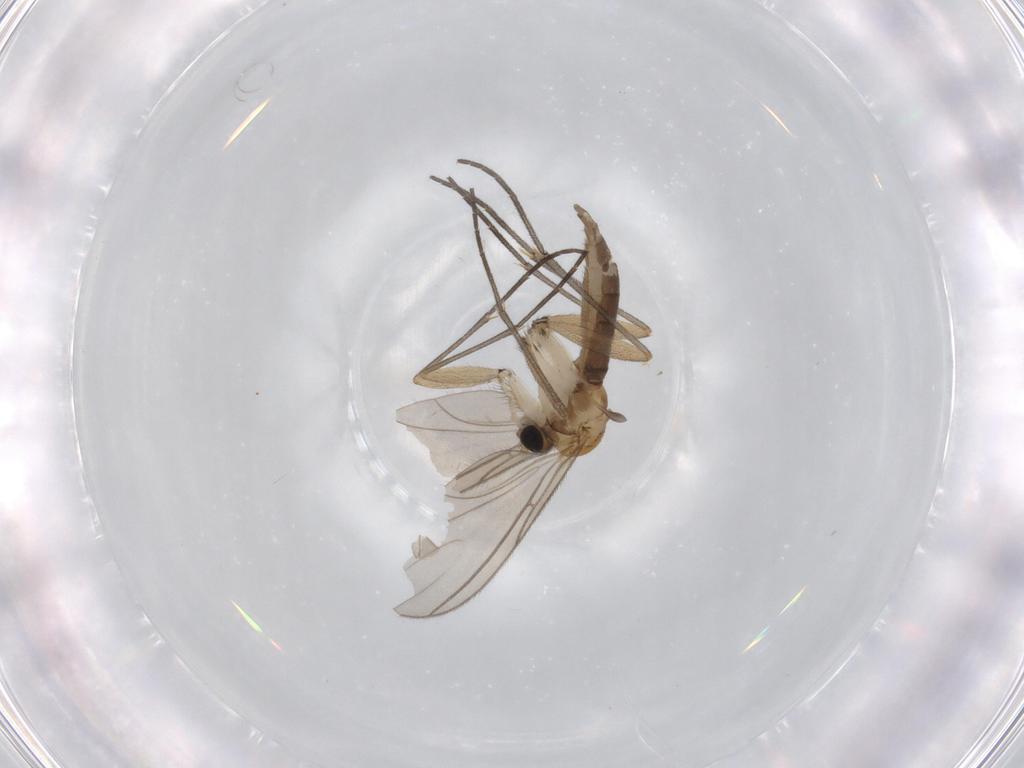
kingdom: Animalia
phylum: Arthropoda
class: Insecta
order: Diptera
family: Sciaridae
